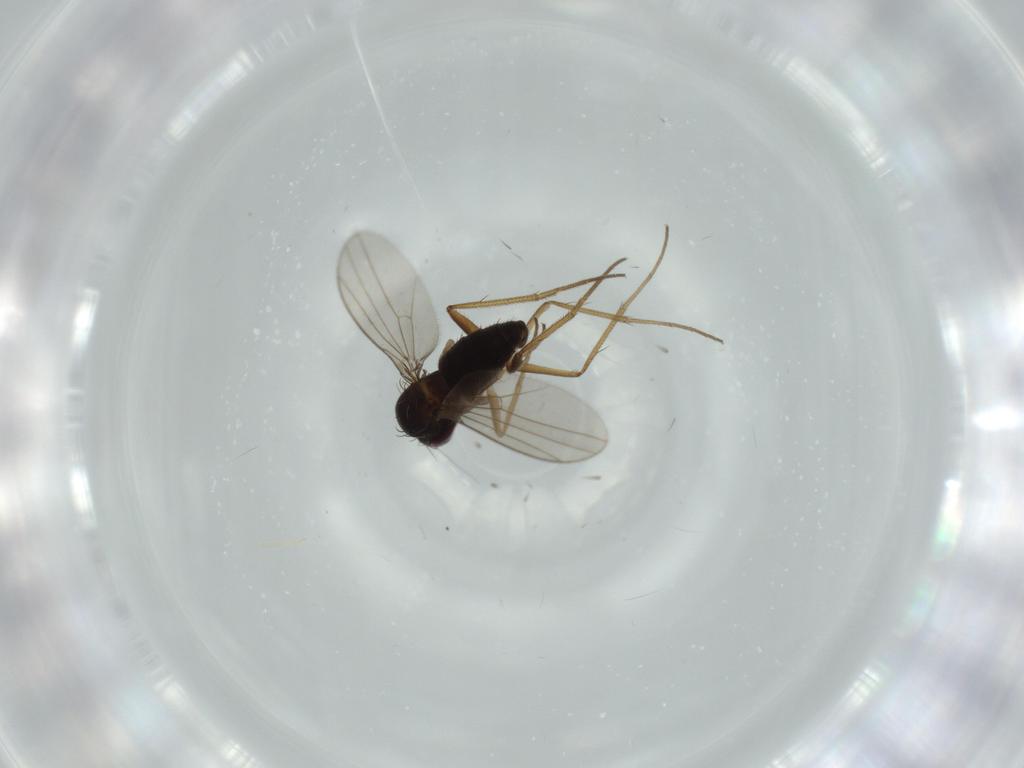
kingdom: Animalia
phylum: Arthropoda
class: Insecta
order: Diptera
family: Dolichopodidae
